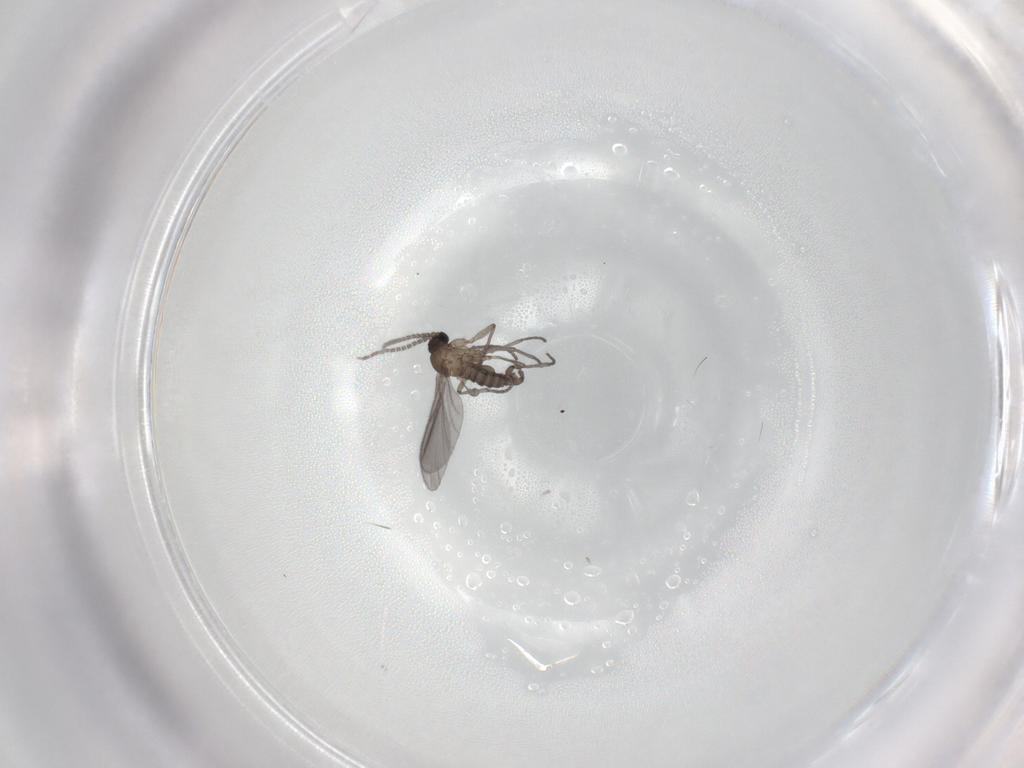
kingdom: Animalia
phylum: Arthropoda
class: Insecta
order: Diptera
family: Sciaridae
